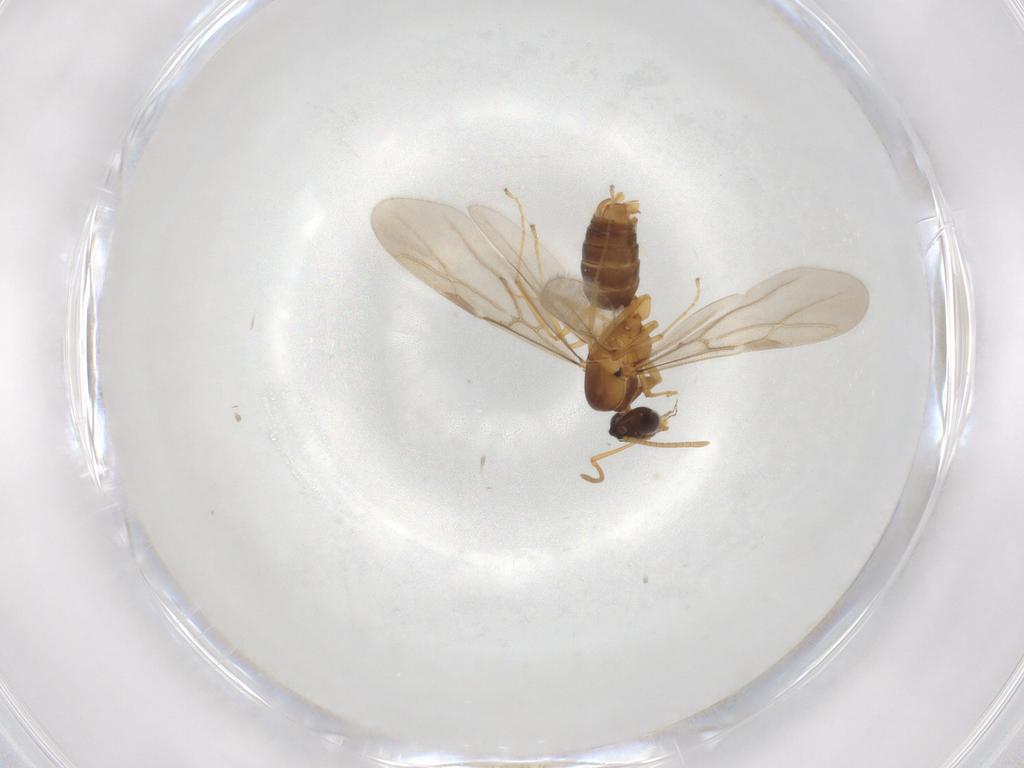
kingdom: Animalia
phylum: Arthropoda
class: Insecta
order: Hymenoptera
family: Formicidae
